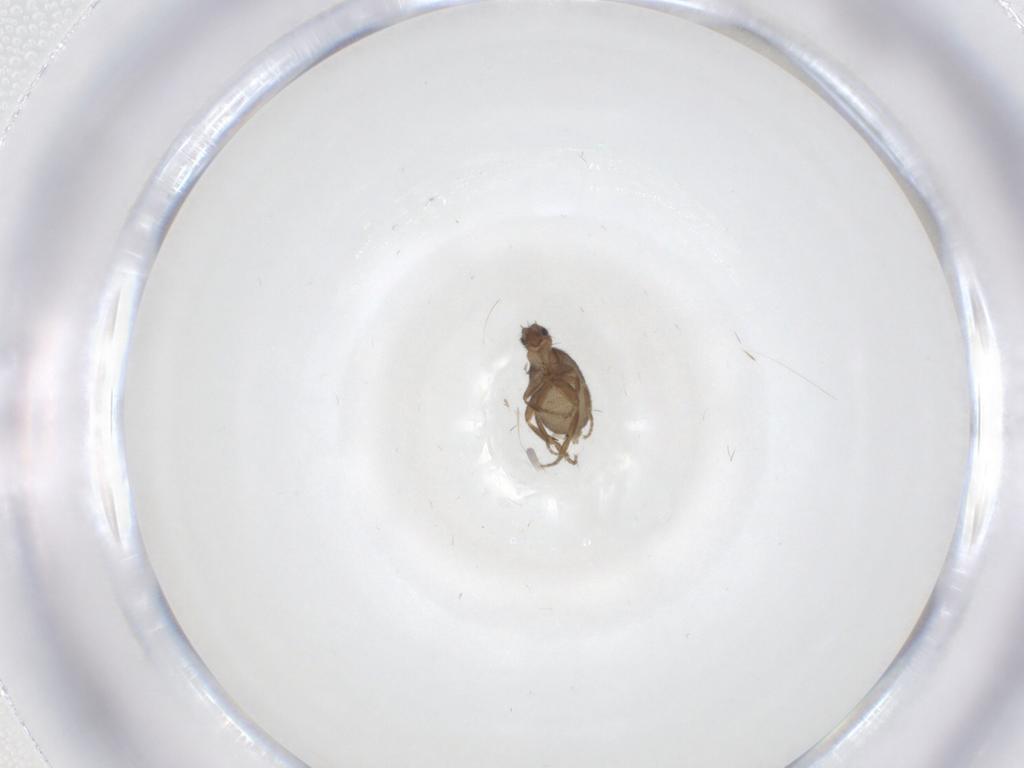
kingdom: Animalia
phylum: Arthropoda
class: Insecta
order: Diptera
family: Phoridae
